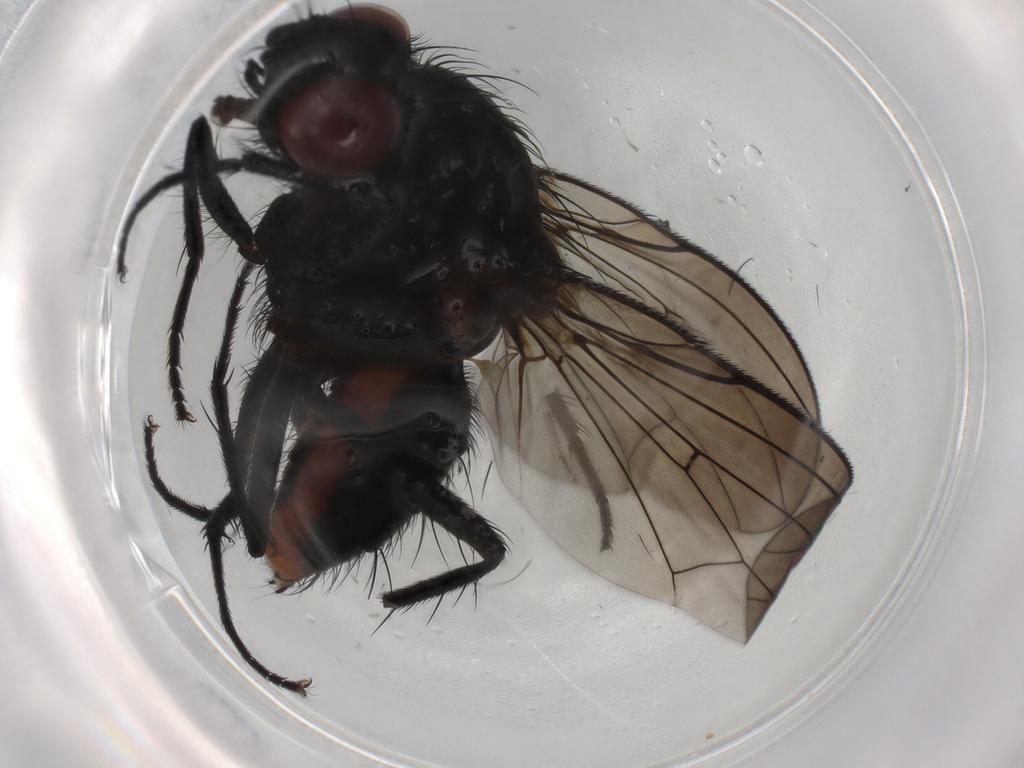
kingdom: Animalia
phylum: Arthropoda
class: Insecta
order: Diptera
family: Anthomyiidae
